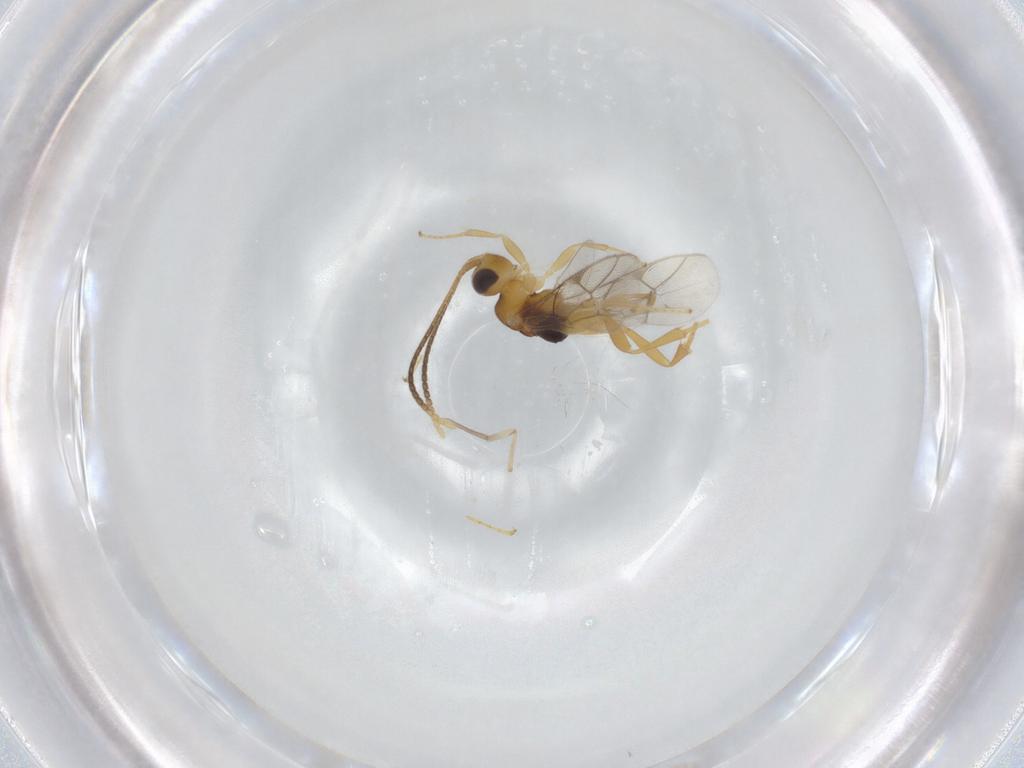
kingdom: Animalia
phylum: Arthropoda
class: Insecta
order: Hymenoptera
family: Ichneumonidae
